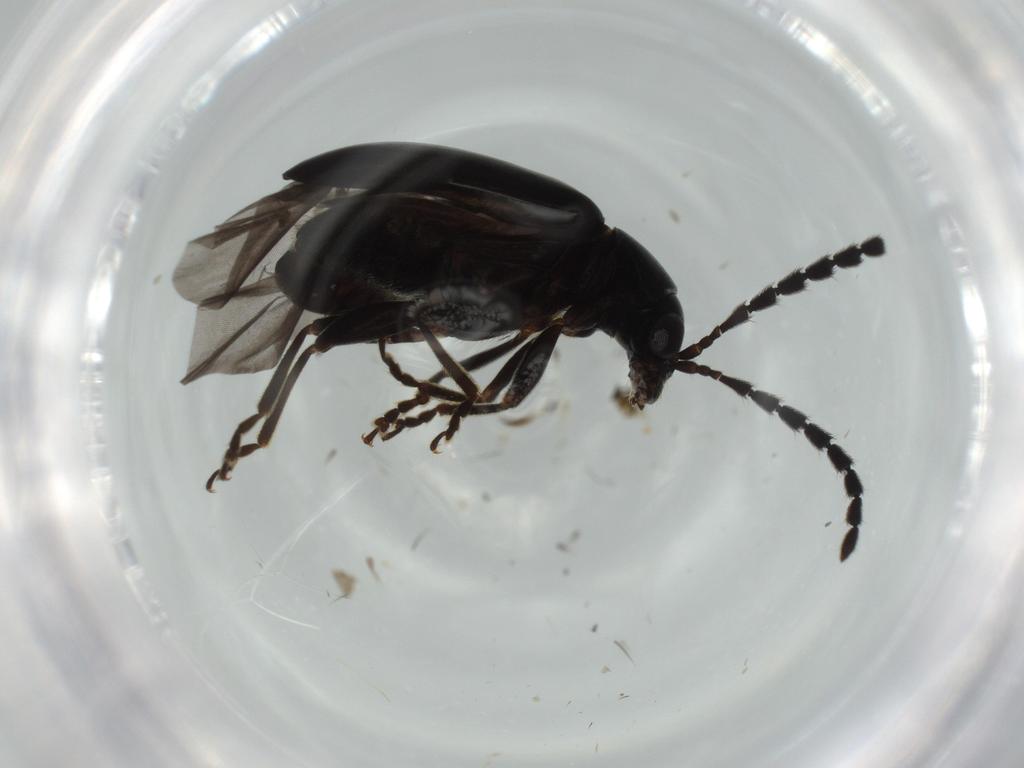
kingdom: Animalia
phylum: Arthropoda
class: Insecta
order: Coleoptera
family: Chrysomelidae
